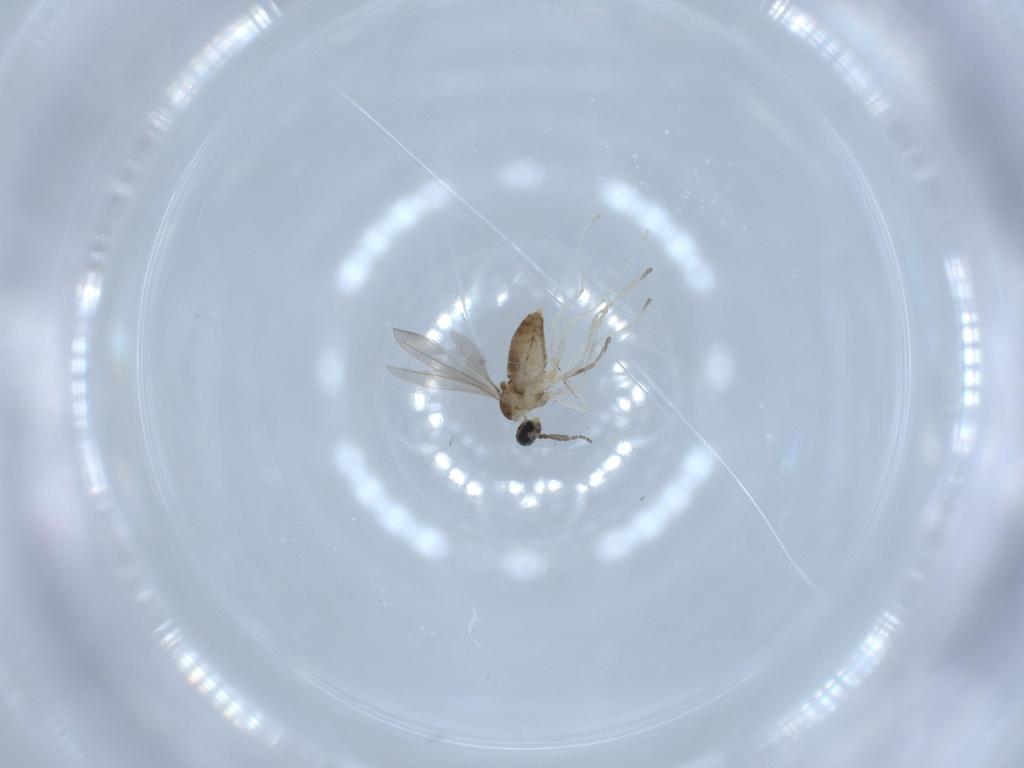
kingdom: Animalia
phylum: Arthropoda
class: Insecta
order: Diptera
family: Cecidomyiidae
